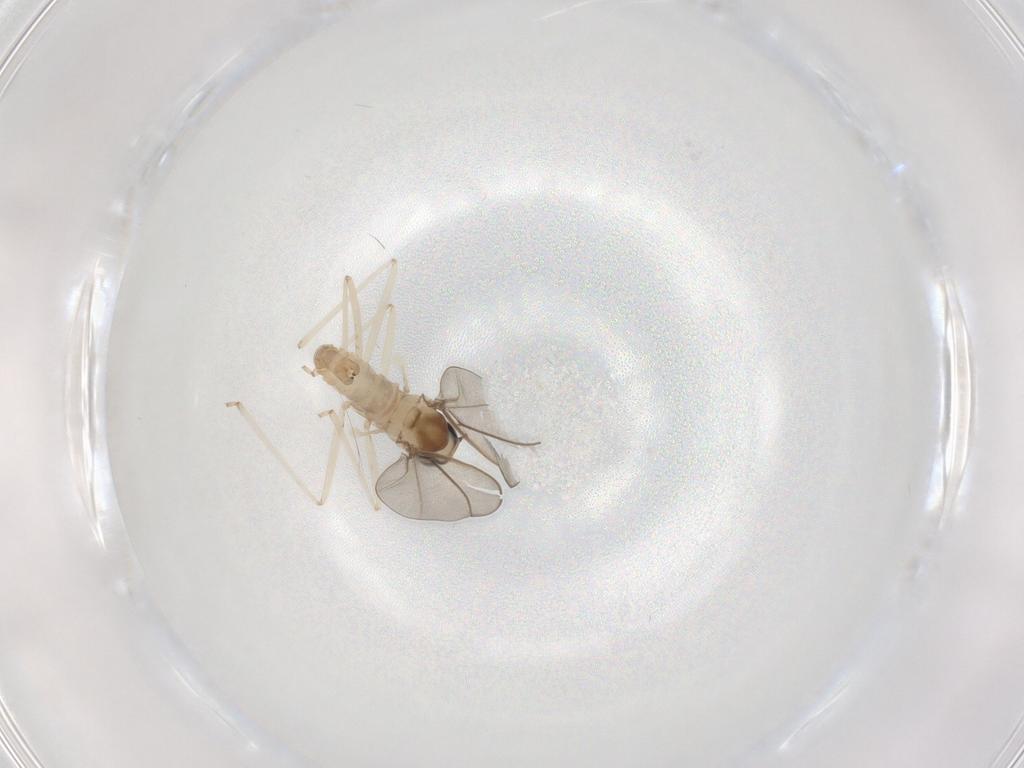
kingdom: Animalia
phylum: Arthropoda
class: Insecta
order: Diptera
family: Cecidomyiidae
